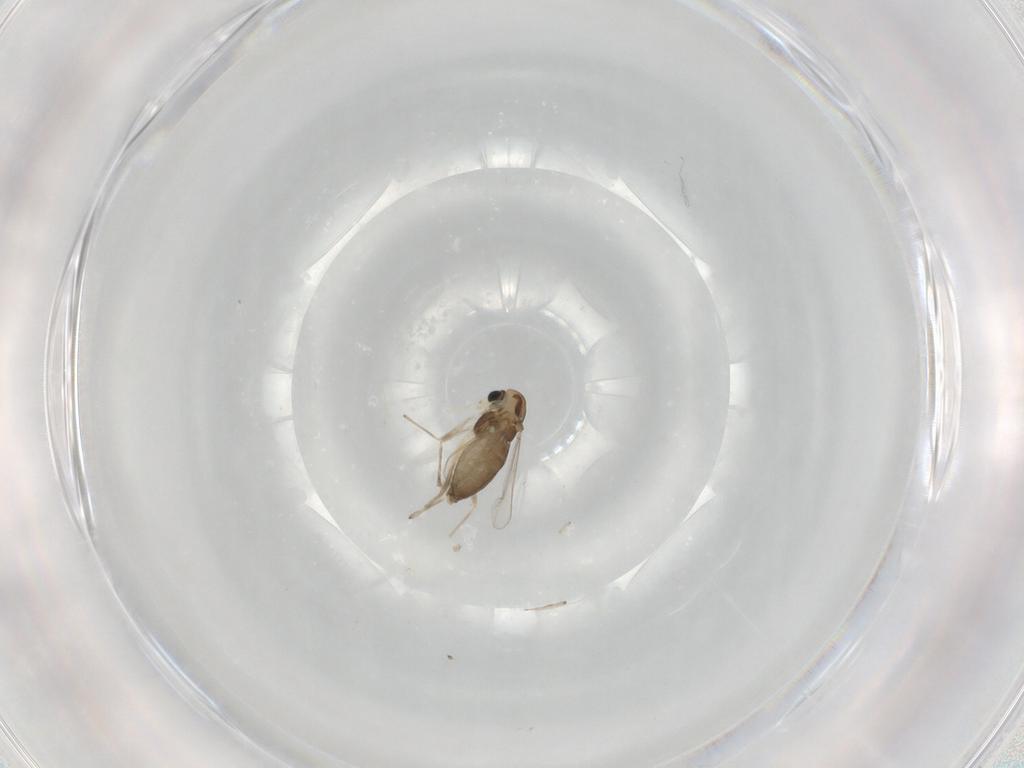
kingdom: Animalia
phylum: Arthropoda
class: Insecta
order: Diptera
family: Chironomidae
